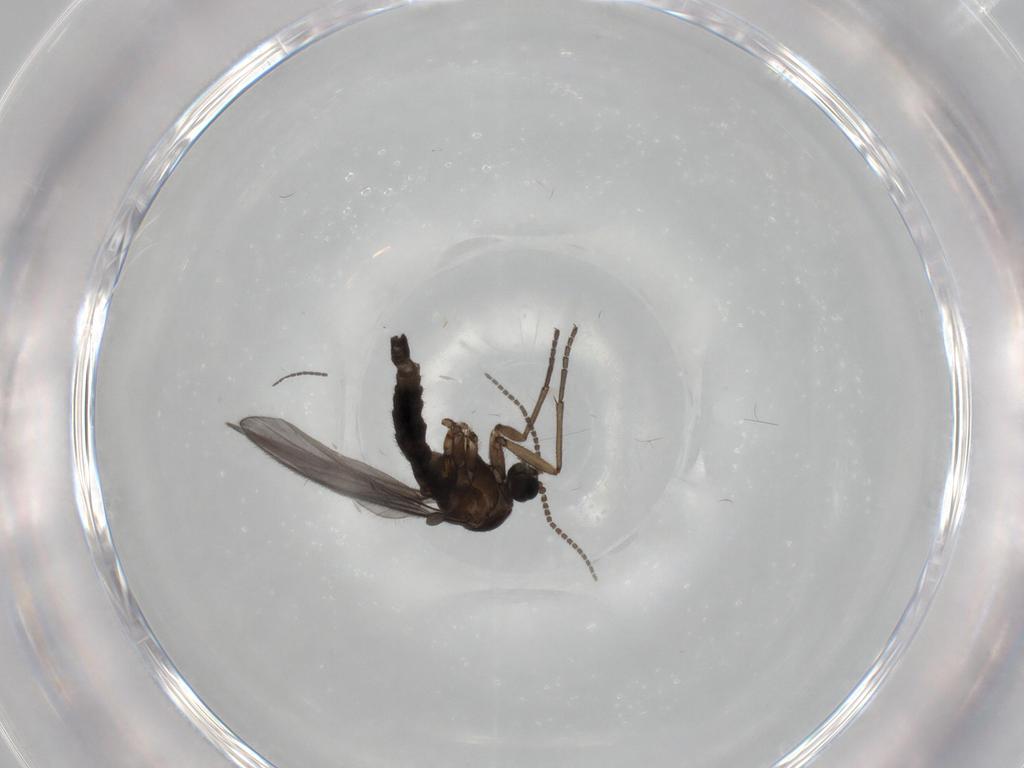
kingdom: Animalia
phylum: Arthropoda
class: Insecta
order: Diptera
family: Sciaridae
